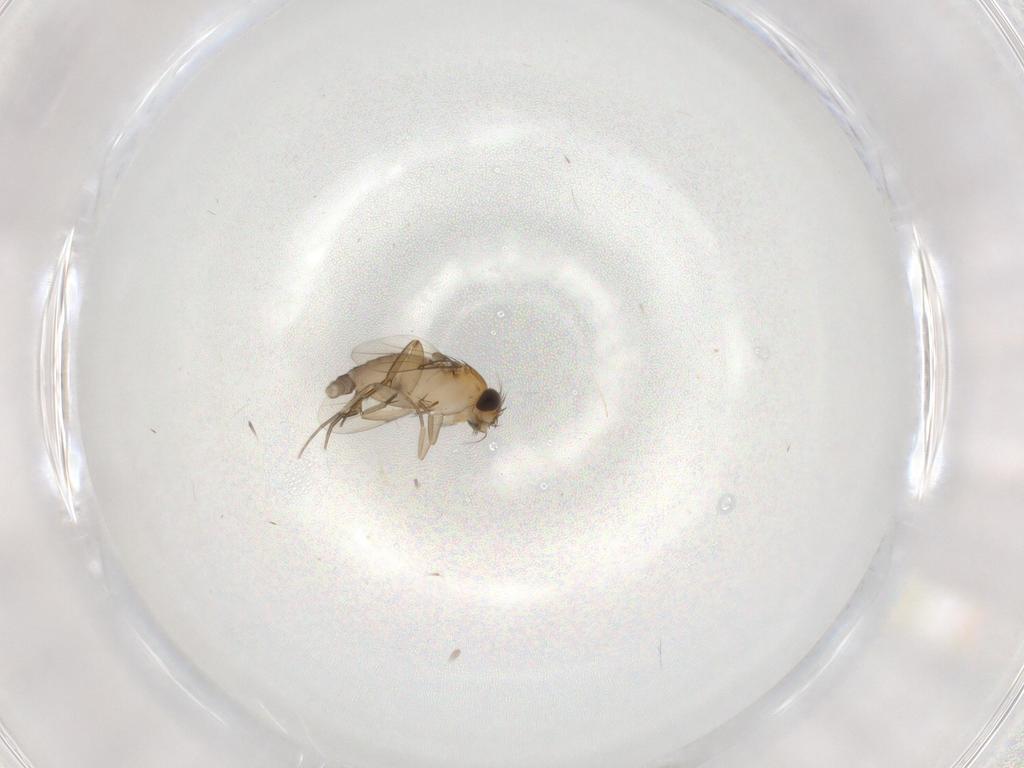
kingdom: Animalia
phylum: Arthropoda
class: Insecta
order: Diptera
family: Phoridae
